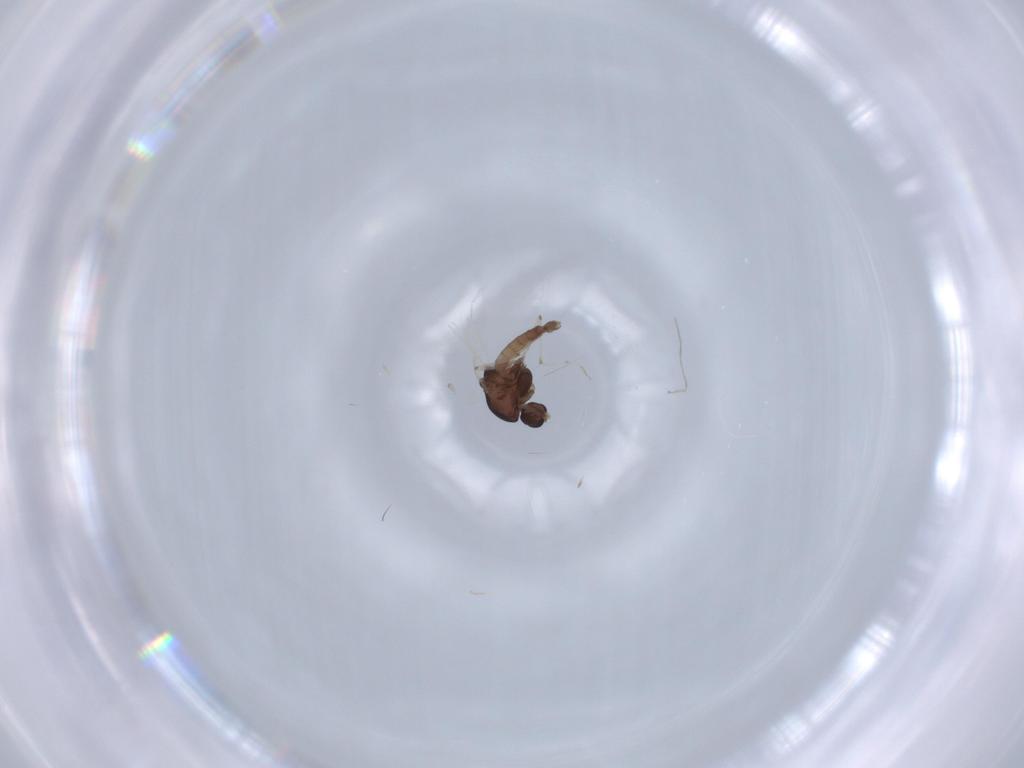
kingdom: Animalia
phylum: Arthropoda
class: Insecta
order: Diptera
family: Chironomidae
